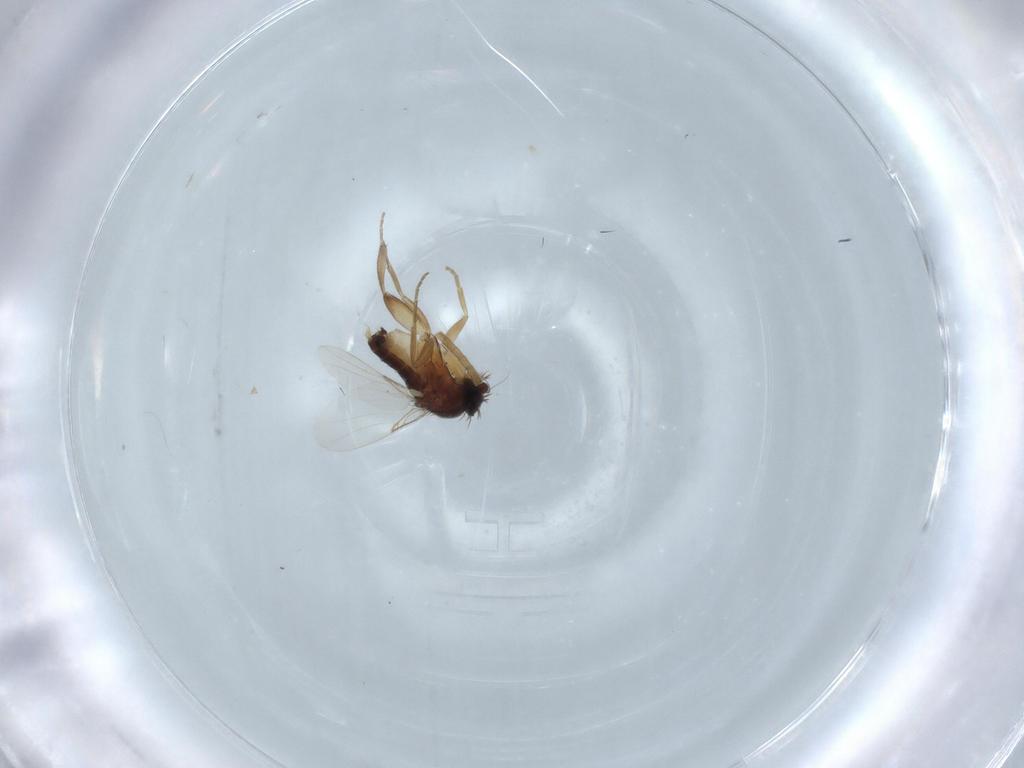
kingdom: Animalia
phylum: Arthropoda
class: Insecta
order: Diptera
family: Phoridae
